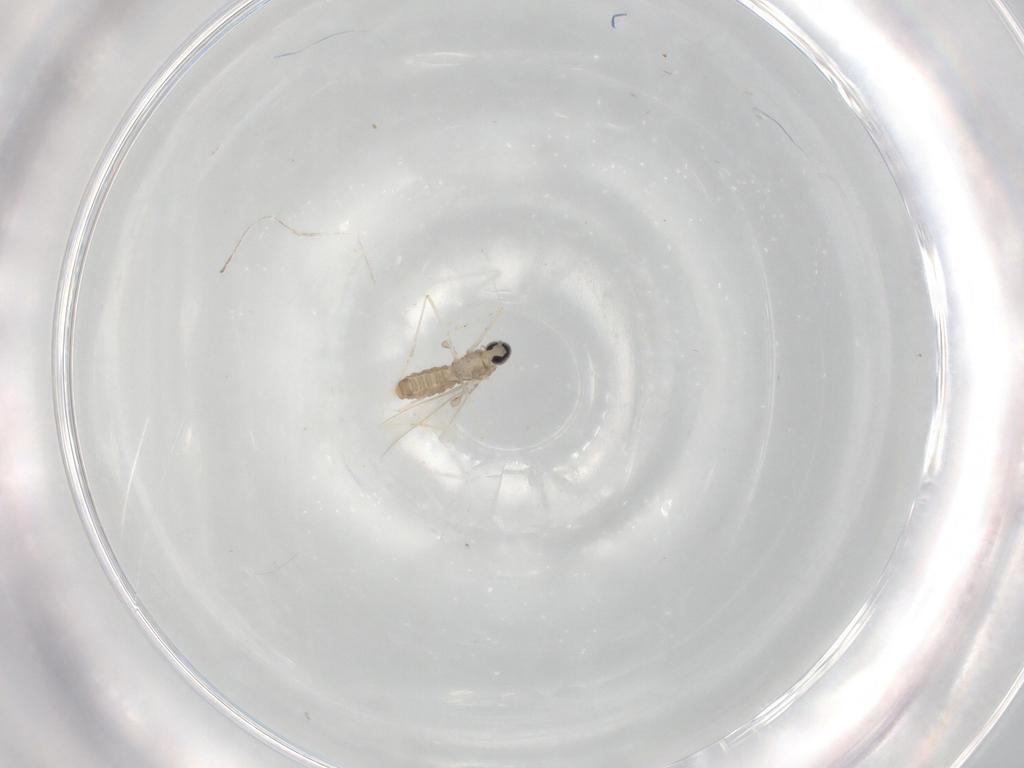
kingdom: Animalia
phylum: Arthropoda
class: Insecta
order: Diptera
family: Cecidomyiidae
